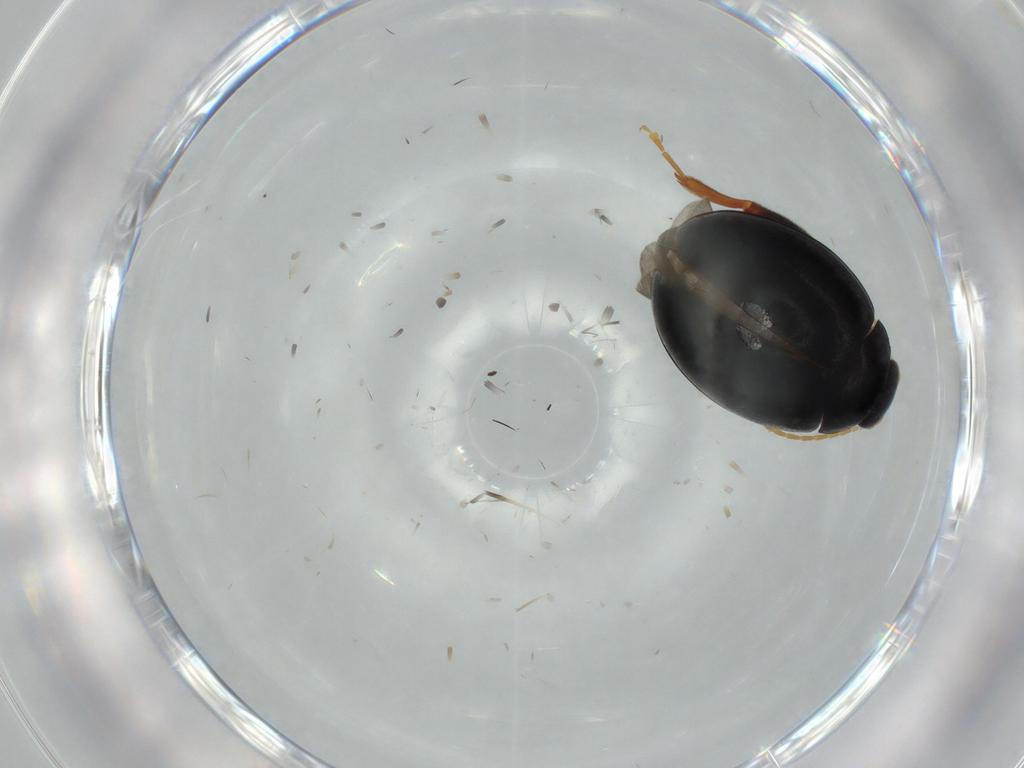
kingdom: Animalia
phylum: Arthropoda
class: Insecta
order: Coleoptera
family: Chrysomelidae
